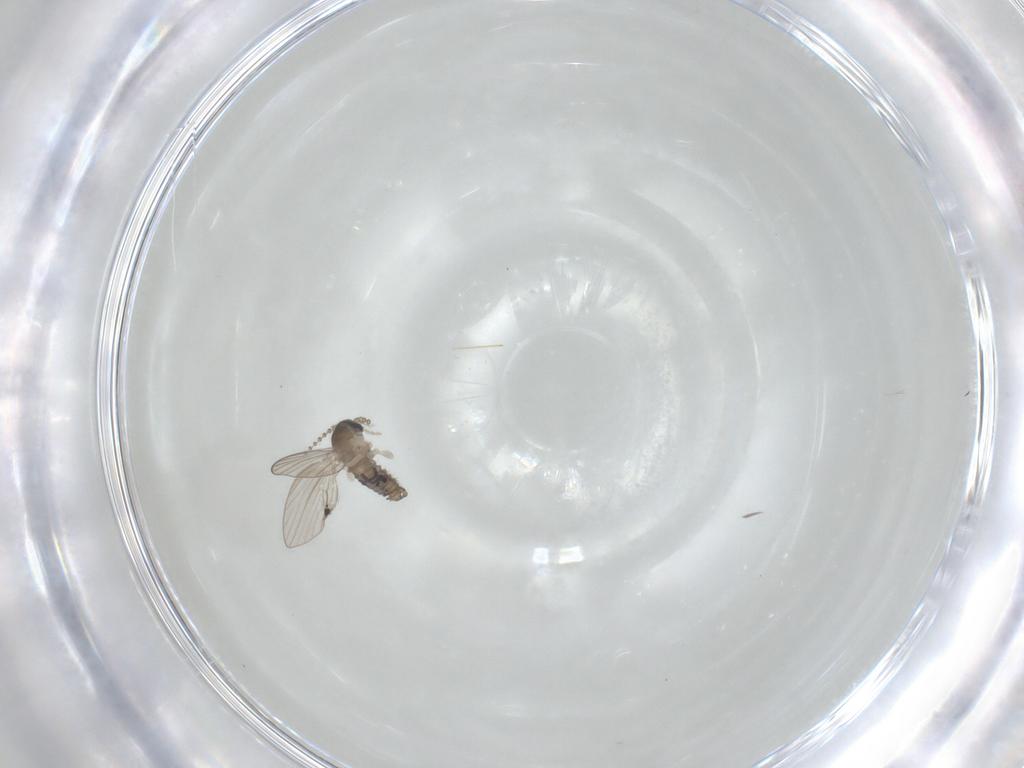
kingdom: Animalia
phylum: Arthropoda
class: Insecta
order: Diptera
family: Psychodidae
